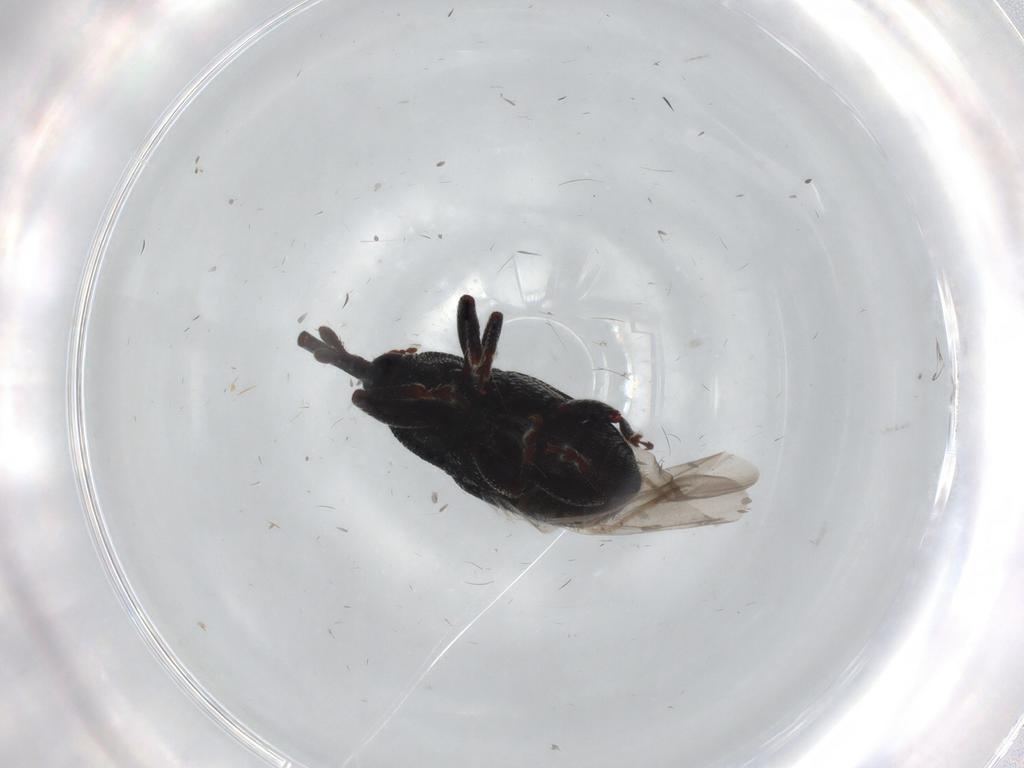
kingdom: Animalia
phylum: Arthropoda
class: Insecta
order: Coleoptera
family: Curculionidae
